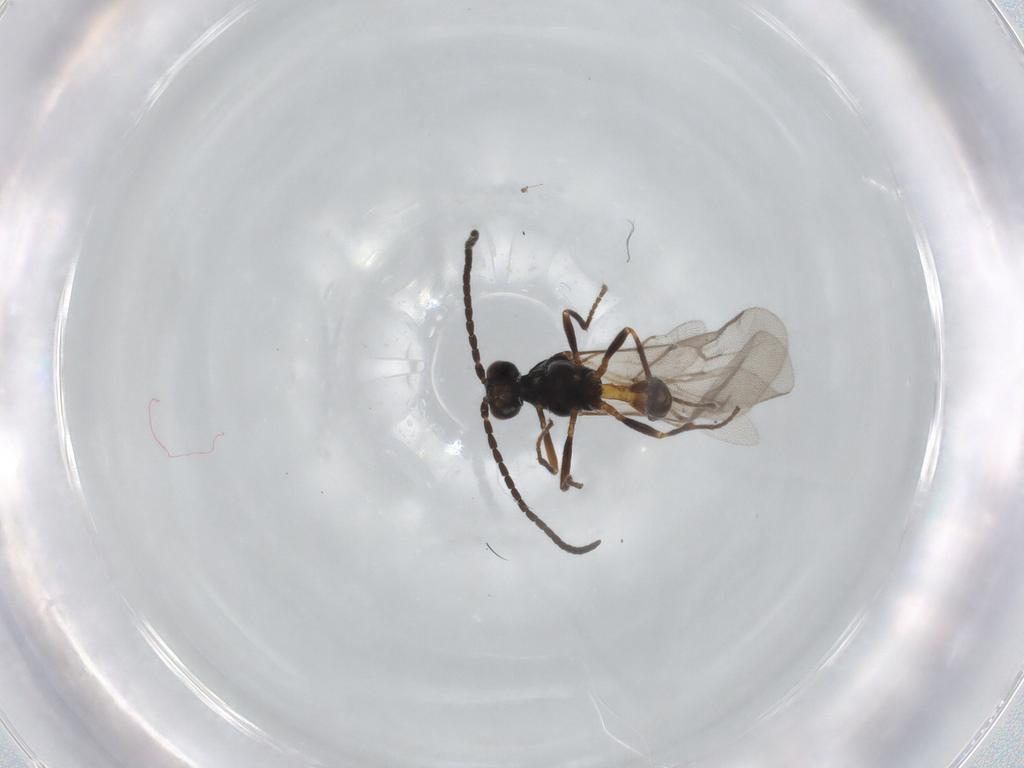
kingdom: Animalia
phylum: Arthropoda
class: Insecta
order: Hymenoptera
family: Braconidae
